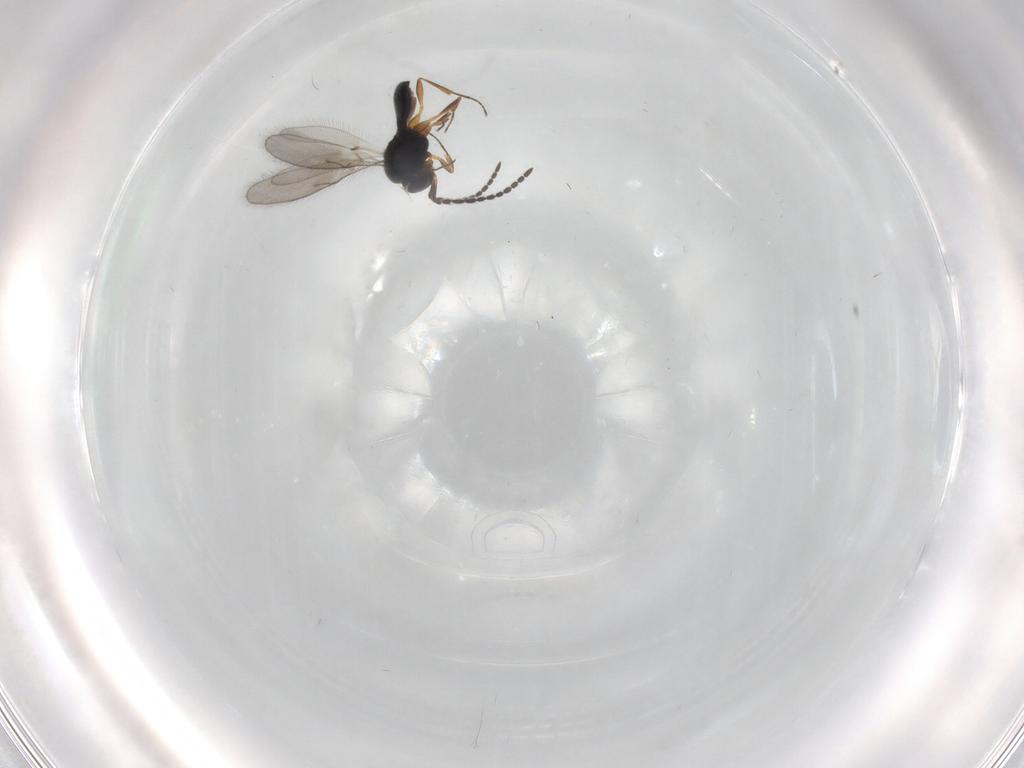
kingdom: Animalia
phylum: Arthropoda
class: Insecta
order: Hymenoptera
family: Scelionidae
